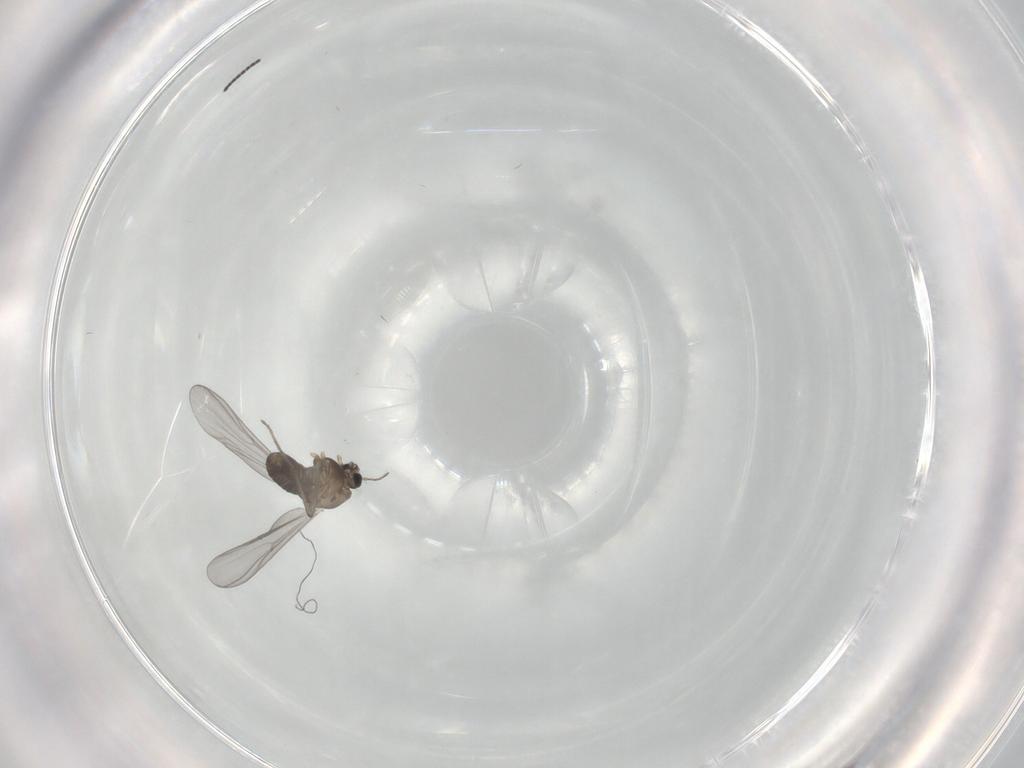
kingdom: Animalia
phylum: Arthropoda
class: Insecta
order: Diptera
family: Chironomidae
